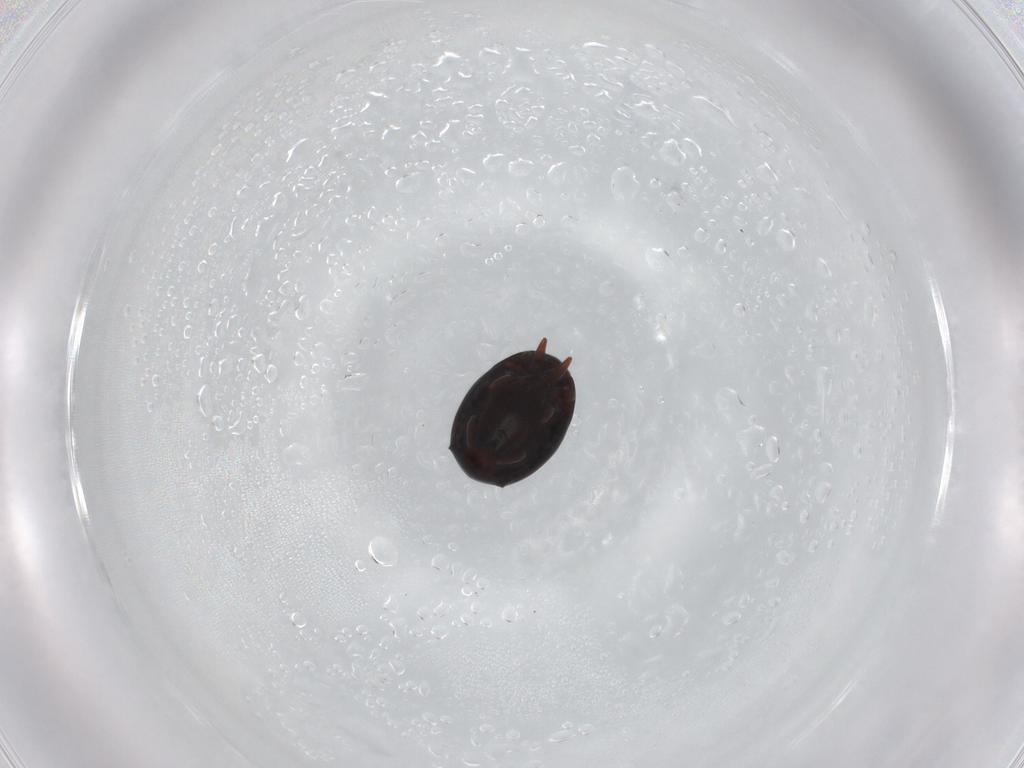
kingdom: Animalia
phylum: Arthropoda
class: Insecta
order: Coleoptera
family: Histeridae
